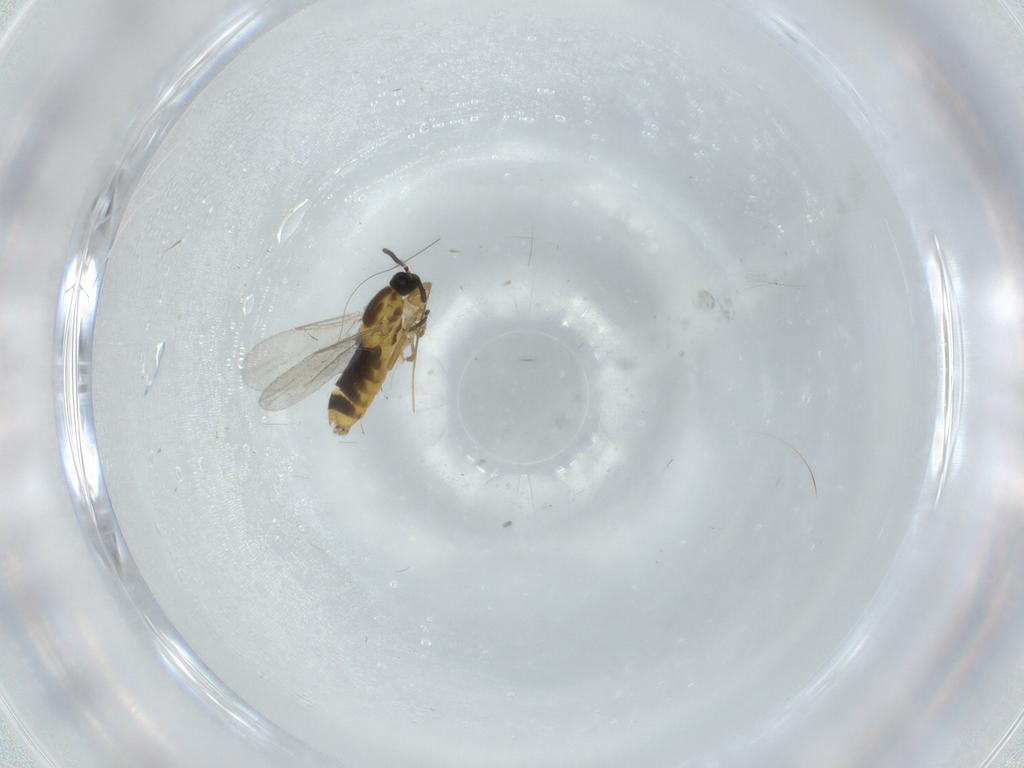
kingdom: Animalia
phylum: Arthropoda
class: Insecta
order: Diptera
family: Scatopsidae
